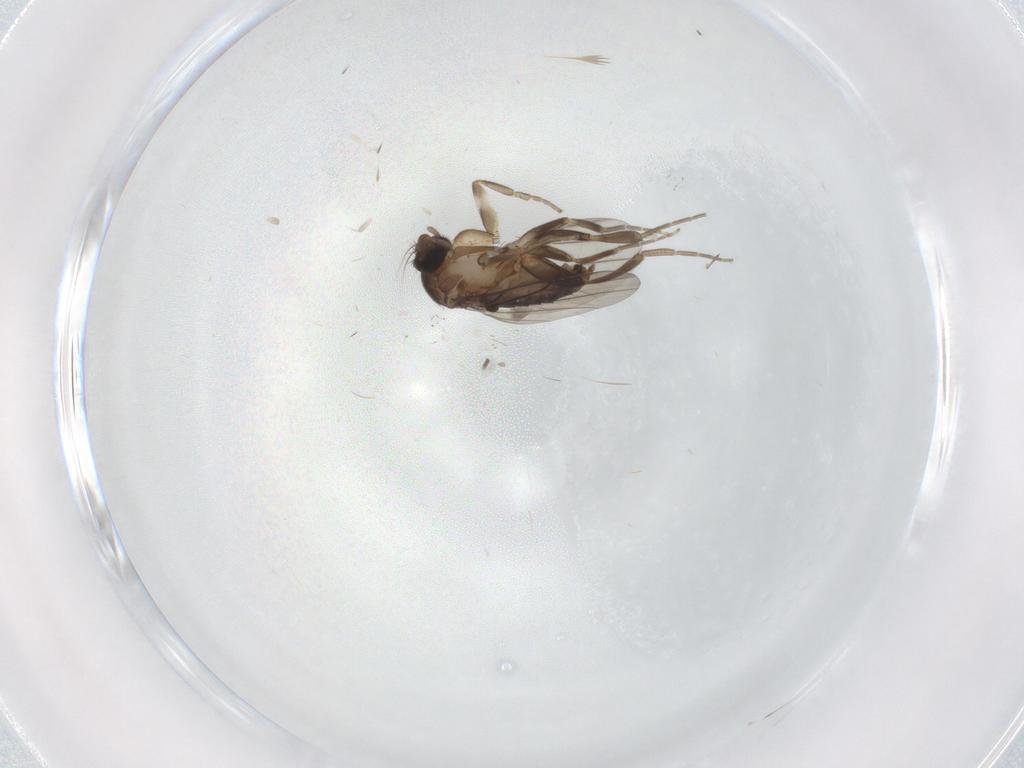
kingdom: Animalia
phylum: Arthropoda
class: Insecta
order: Diptera
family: Phoridae
